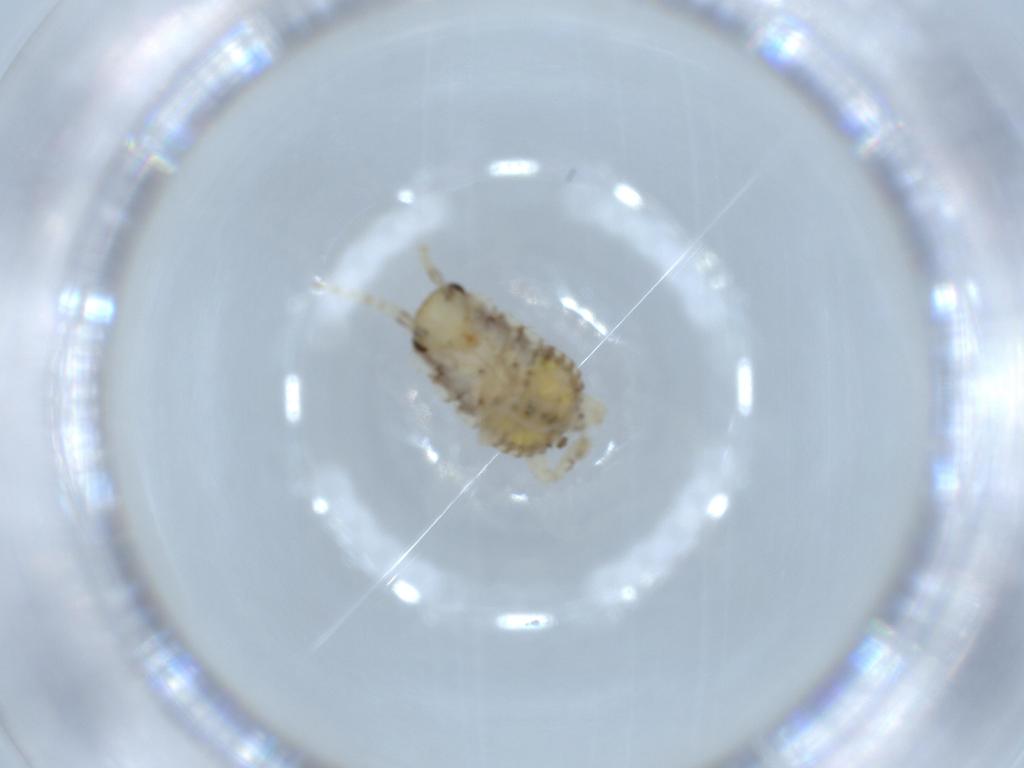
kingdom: Animalia
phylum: Arthropoda
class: Insecta
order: Blattodea
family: Ectobiidae
